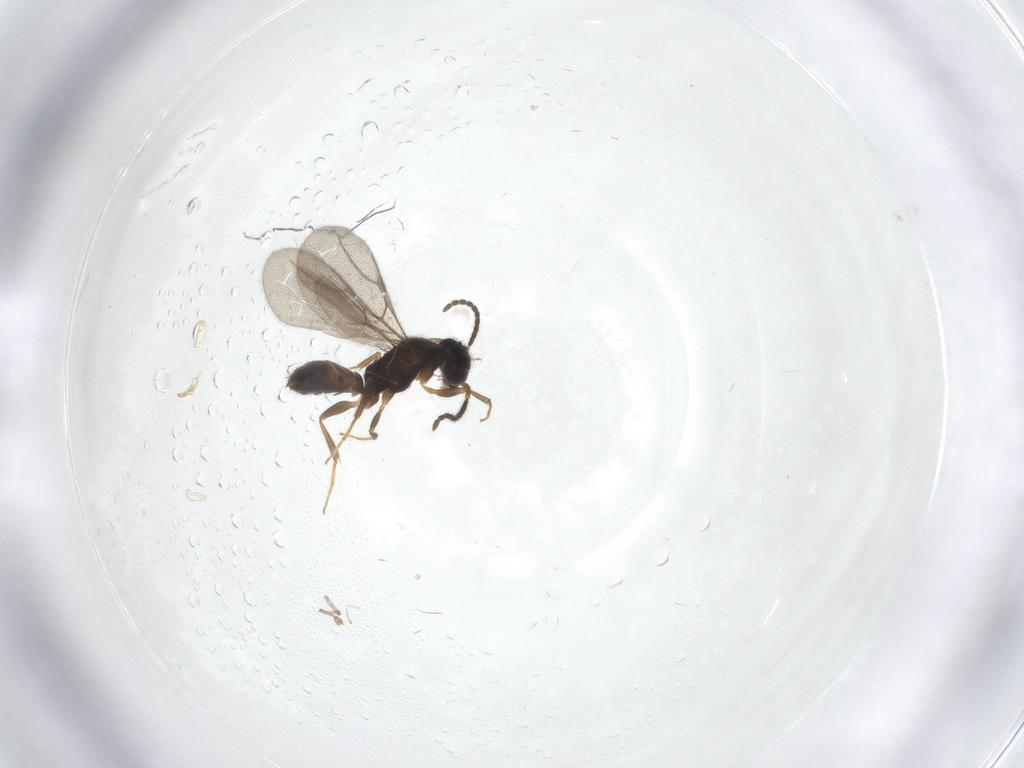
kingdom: Animalia
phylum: Arthropoda
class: Insecta
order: Hymenoptera
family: Bethylidae
